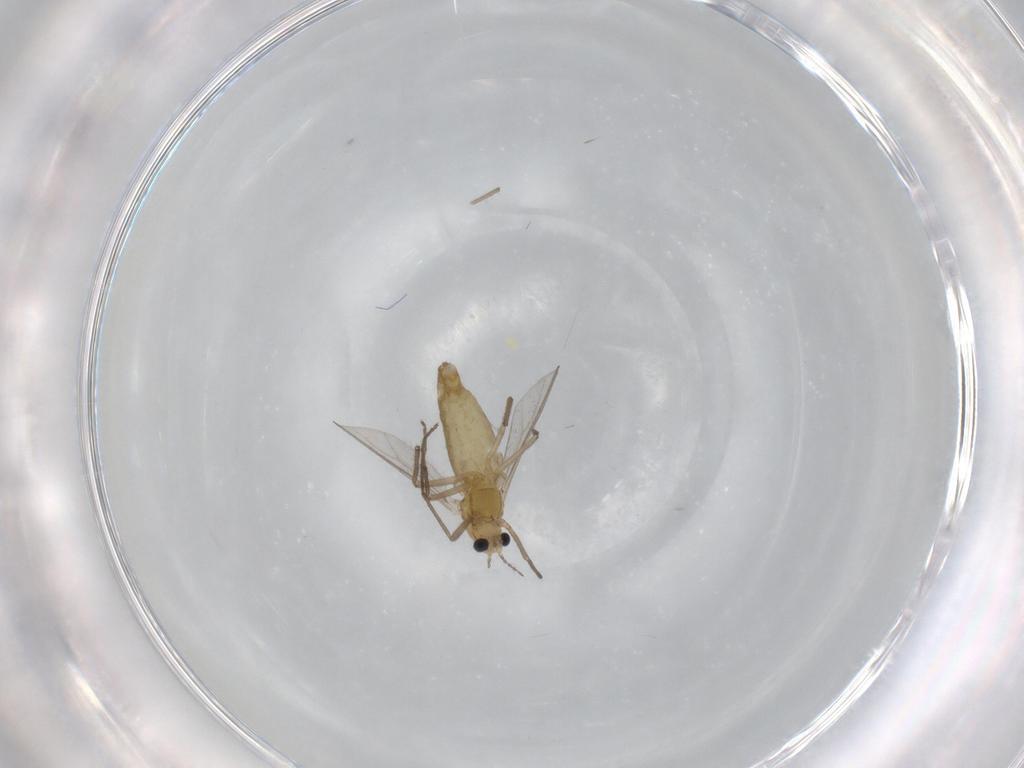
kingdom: Animalia
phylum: Arthropoda
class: Insecta
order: Diptera
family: Chironomidae
